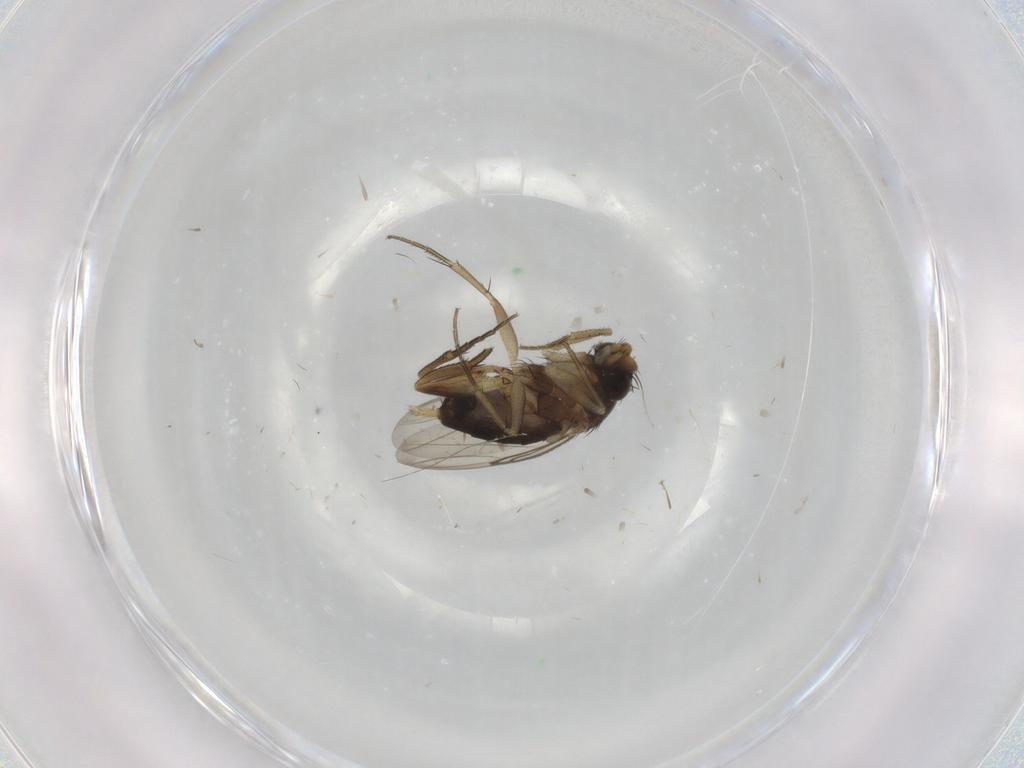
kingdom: Animalia
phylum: Arthropoda
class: Insecta
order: Diptera
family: Phoridae
